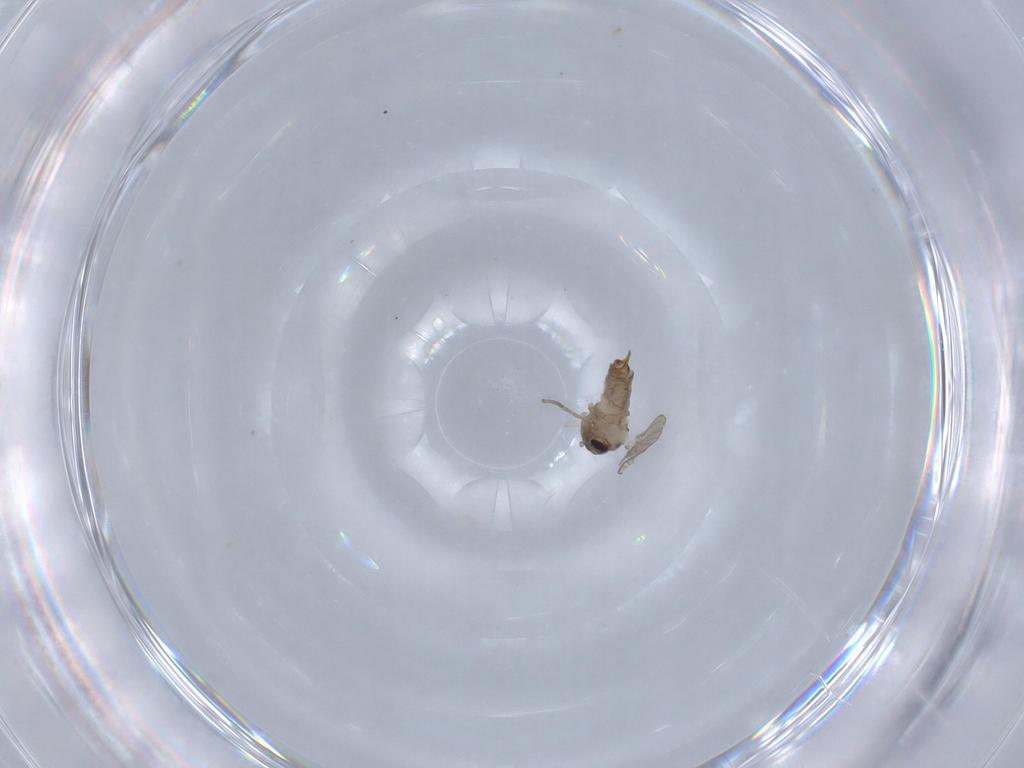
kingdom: Animalia
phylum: Arthropoda
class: Insecta
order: Diptera
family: Psychodidae
